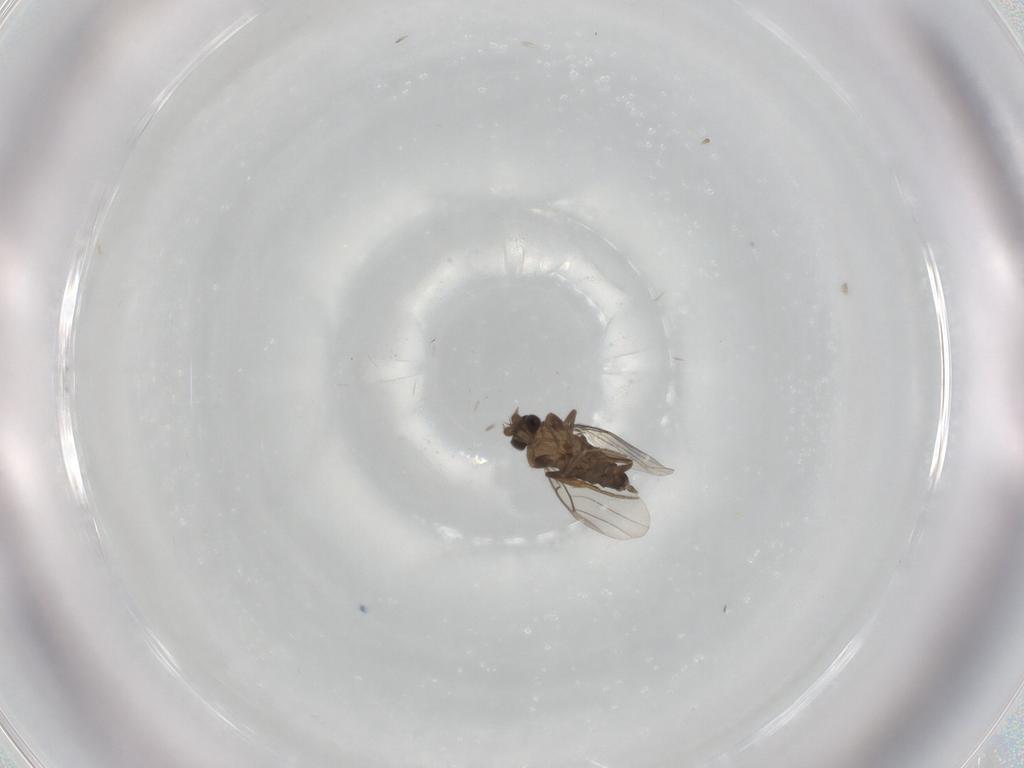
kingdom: Animalia
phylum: Arthropoda
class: Insecta
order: Diptera
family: Phoridae
